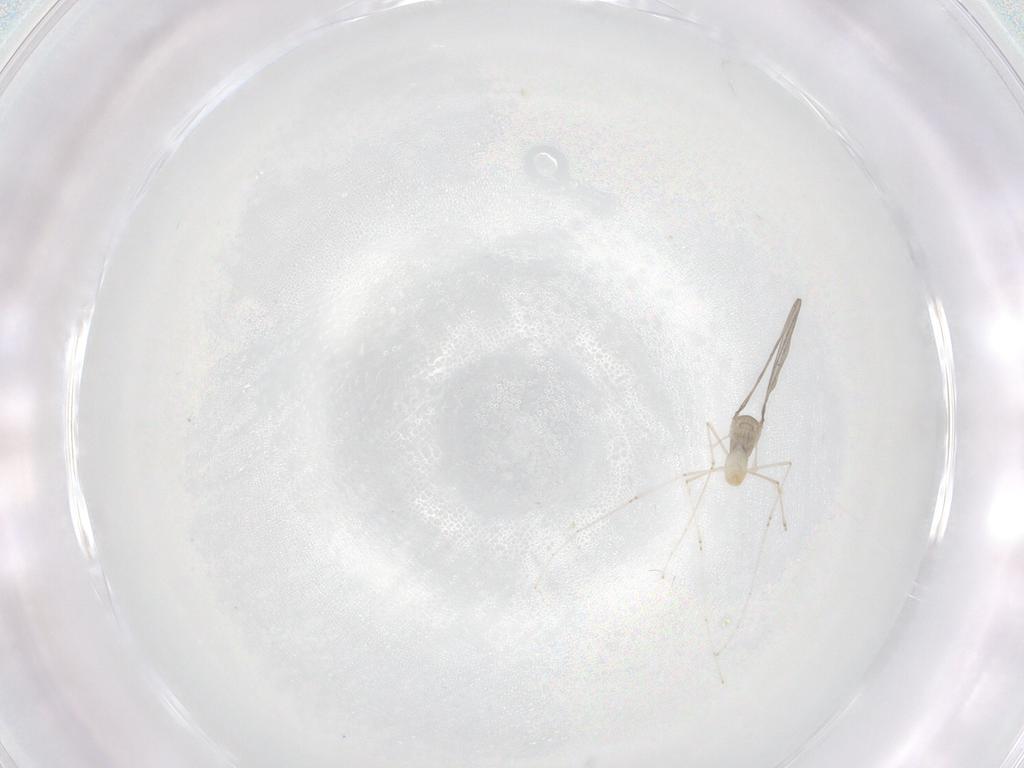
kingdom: Animalia
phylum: Arthropoda
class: Insecta
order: Diptera
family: Cecidomyiidae
